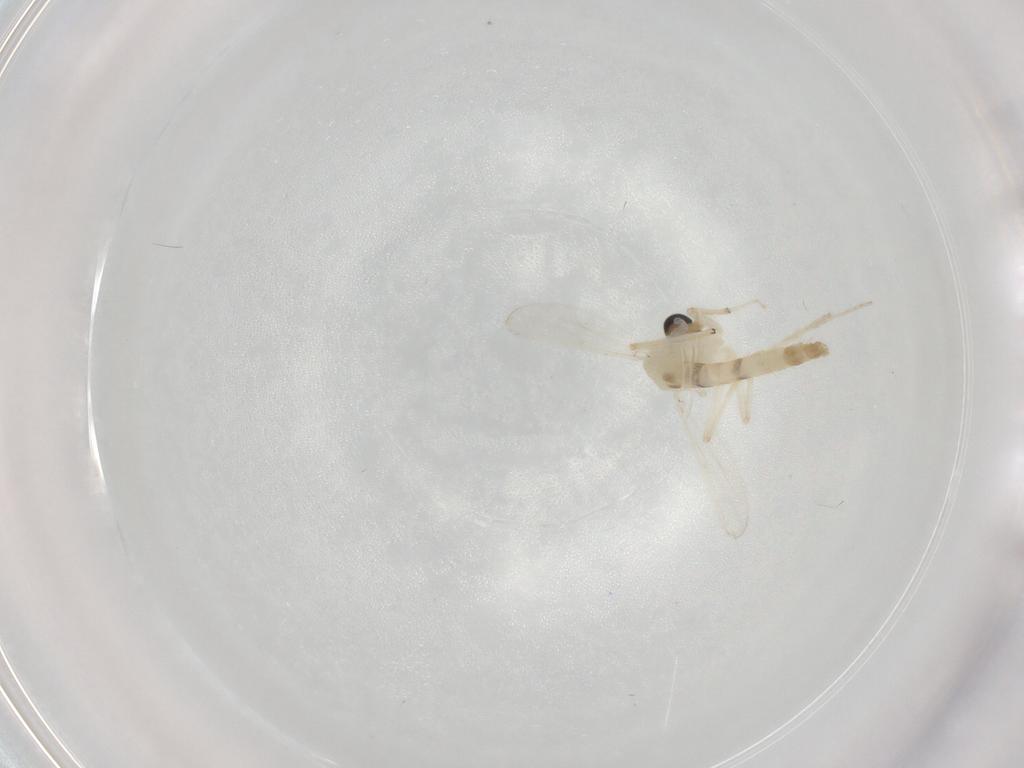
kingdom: Animalia
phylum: Arthropoda
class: Insecta
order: Diptera
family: Chironomidae
